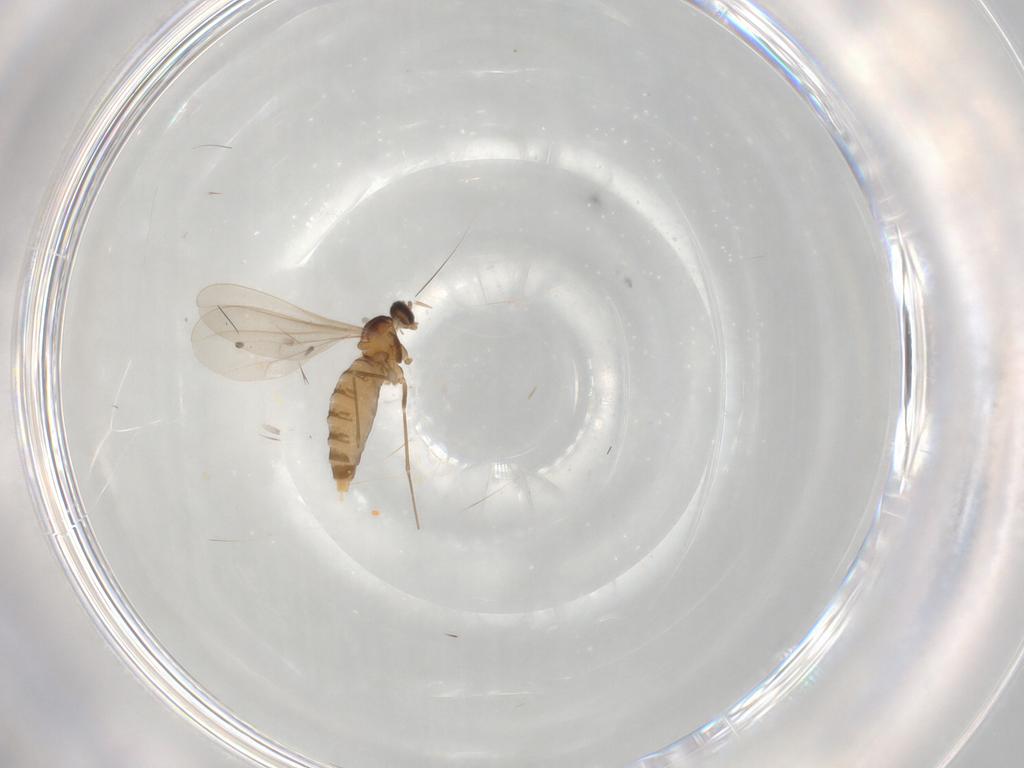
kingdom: Animalia
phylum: Arthropoda
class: Insecta
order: Diptera
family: Cecidomyiidae
